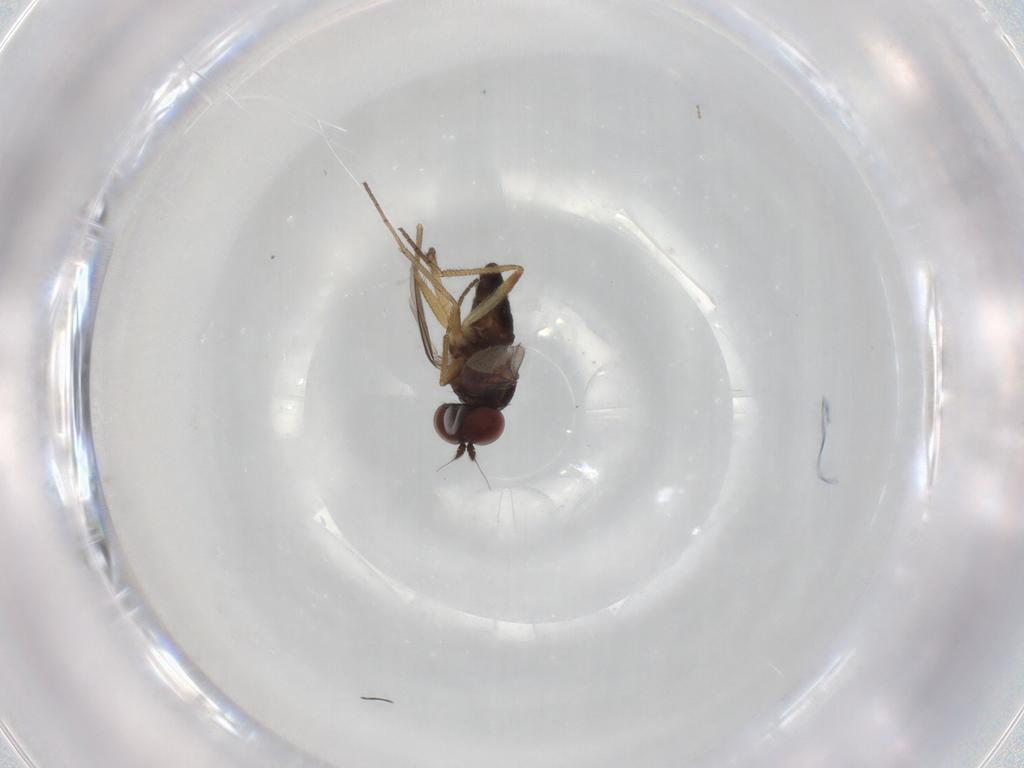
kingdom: Animalia
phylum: Arthropoda
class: Insecta
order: Diptera
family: Dolichopodidae
